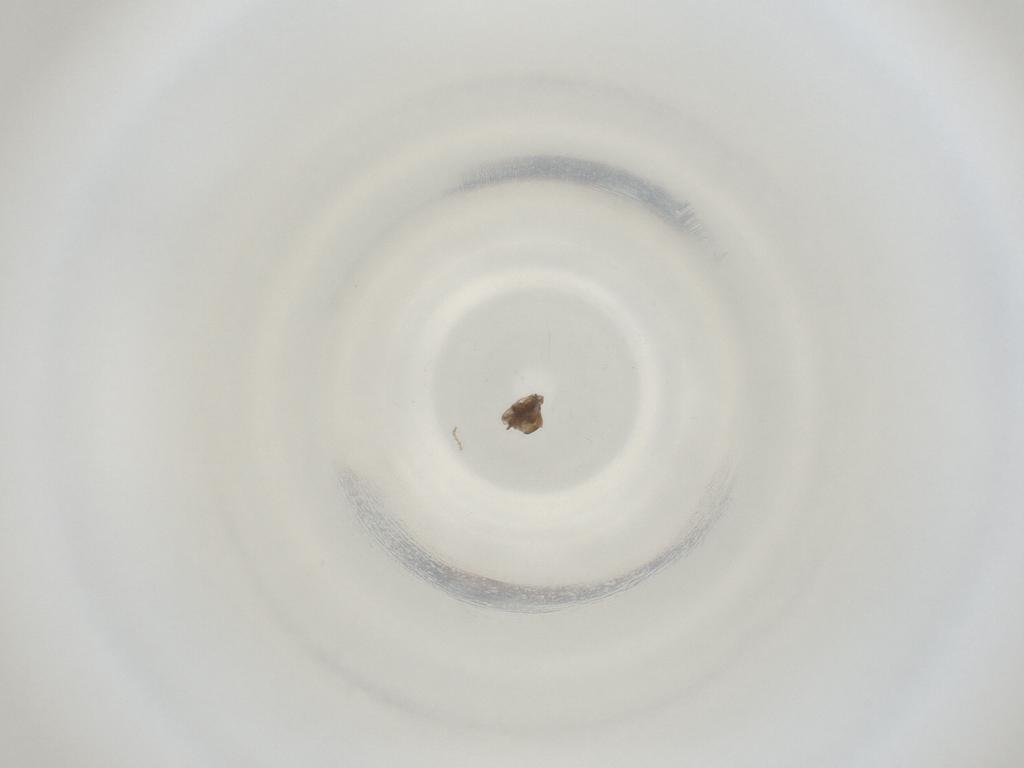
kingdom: Animalia
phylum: Arthropoda
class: Insecta
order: Diptera
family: Cecidomyiidae
